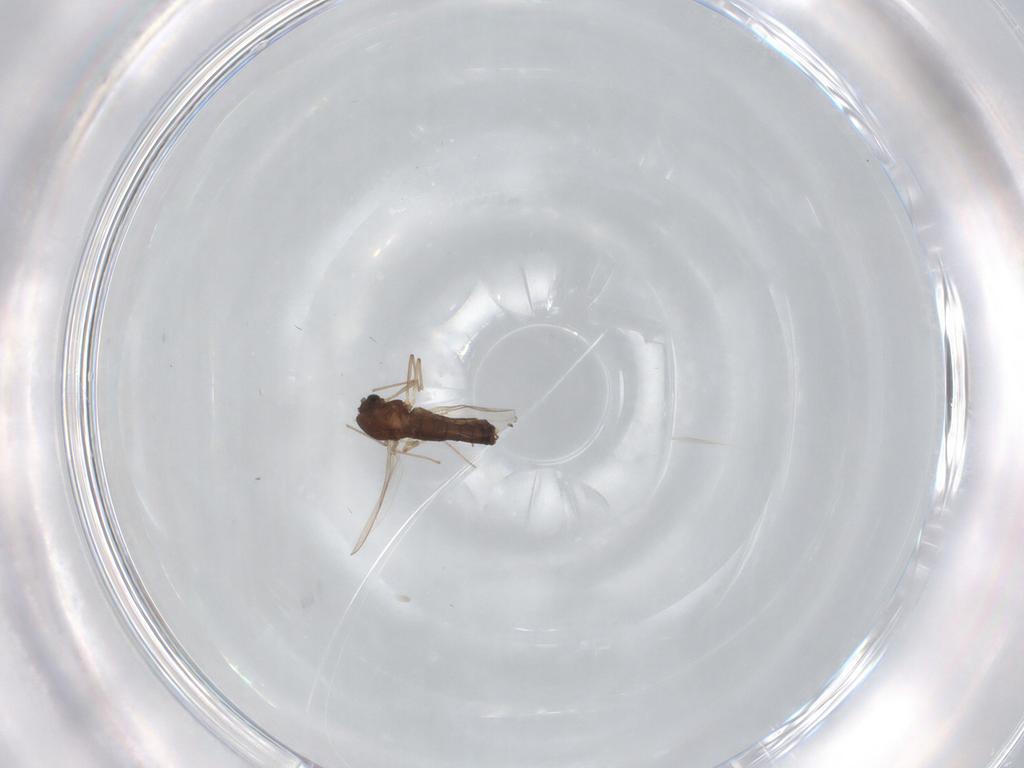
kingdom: Animalia
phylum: Arthropoda
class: Insecta
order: Diptera
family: Chironomidae
